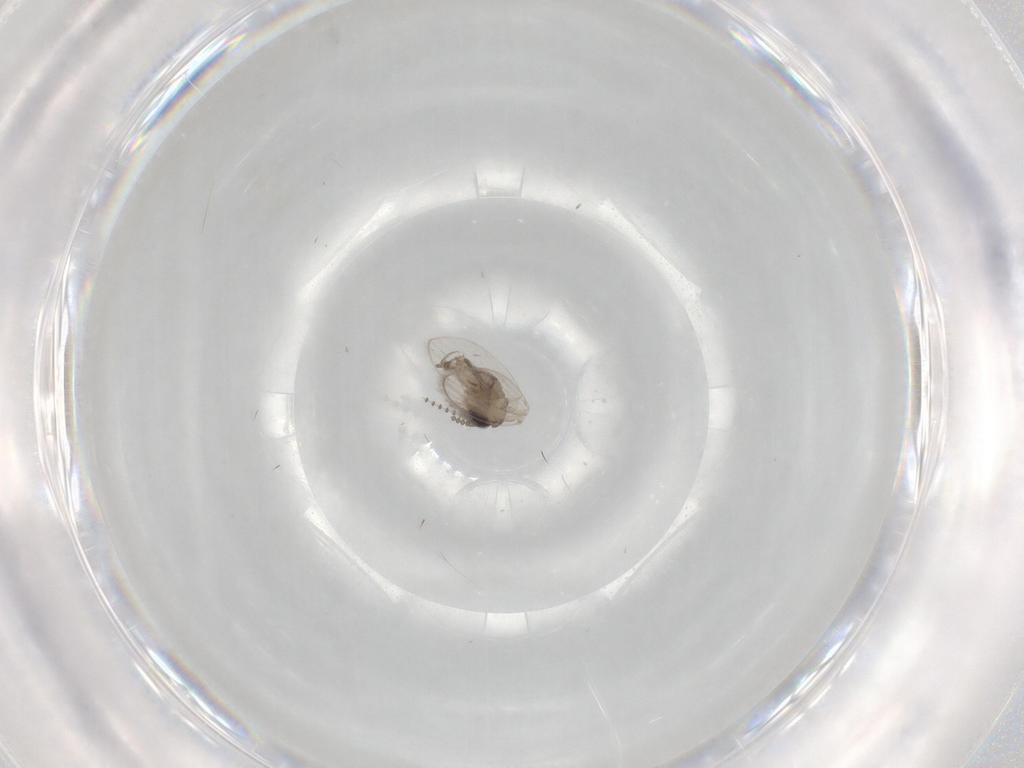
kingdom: Animalia
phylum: Arthropoda
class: Insecta
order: Diptera
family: Psychodidae
